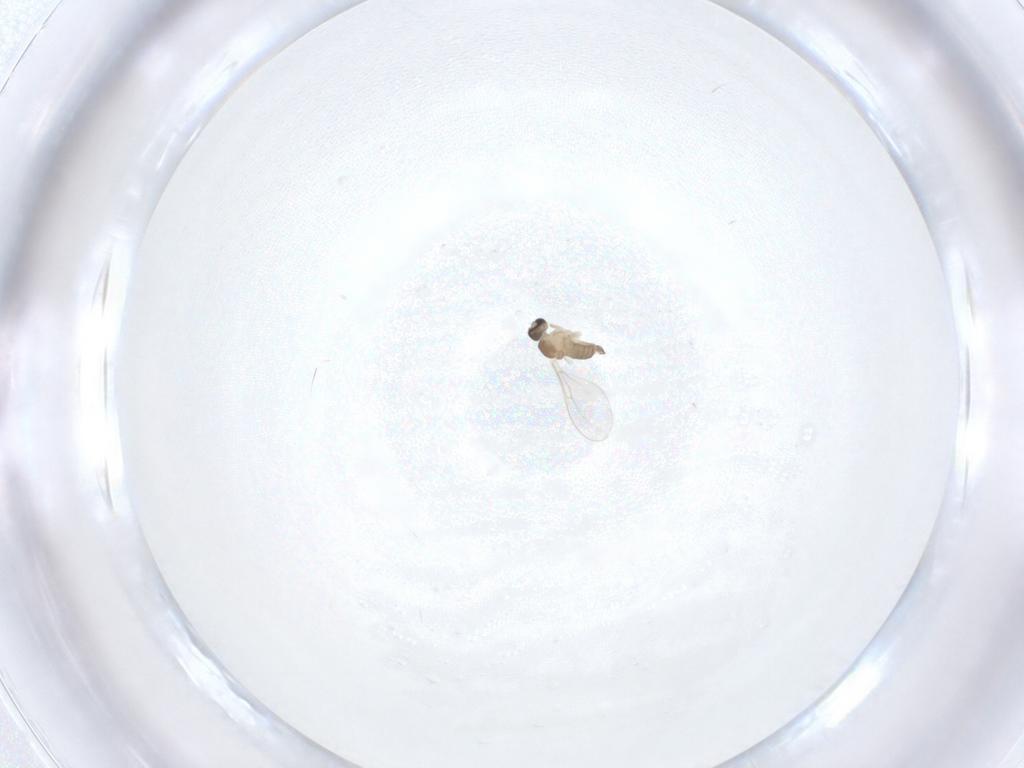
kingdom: Animalia
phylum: Arthropoda
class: Insecta
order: Diptera
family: Cecidomyiidae
